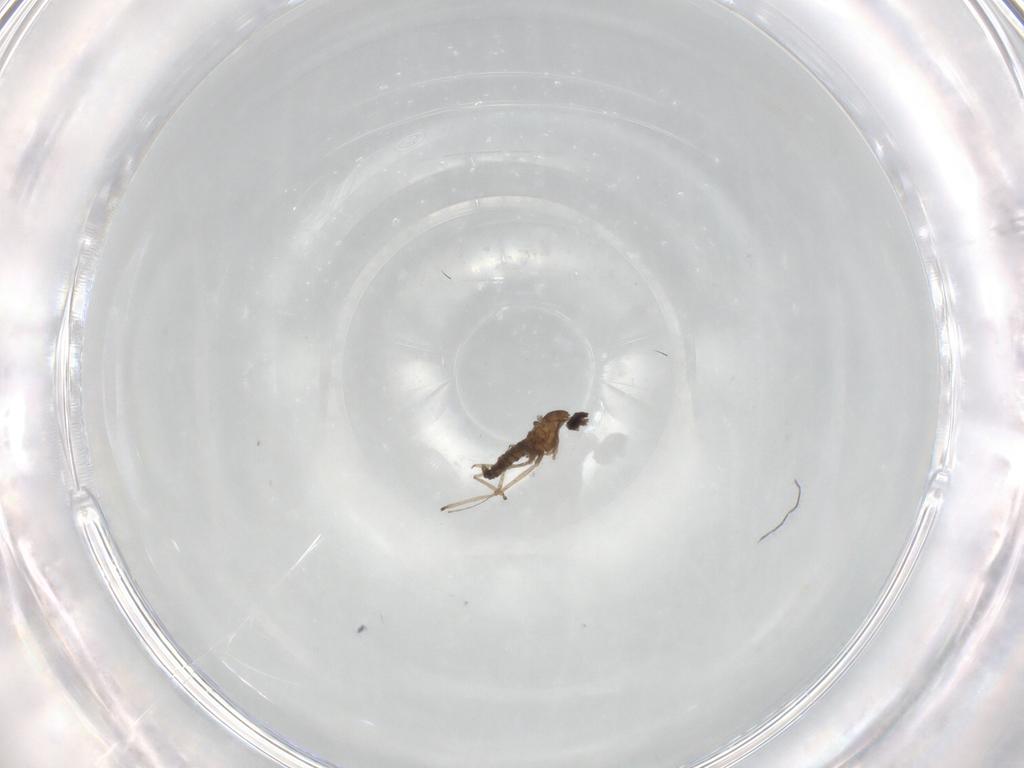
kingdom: Animalia
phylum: Arthropoda
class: Insecta
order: Diptera
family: Cecidomyiidae
